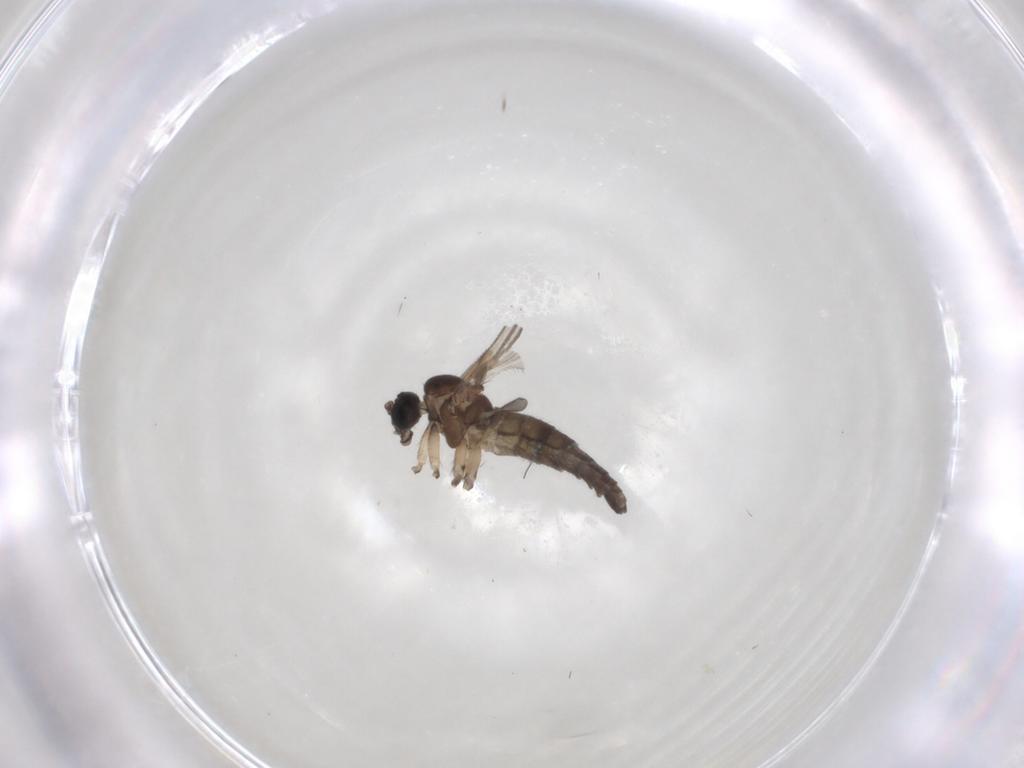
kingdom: Animalia
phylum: Arthropoda
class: Insecta
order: Diptera
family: Sciaridae
